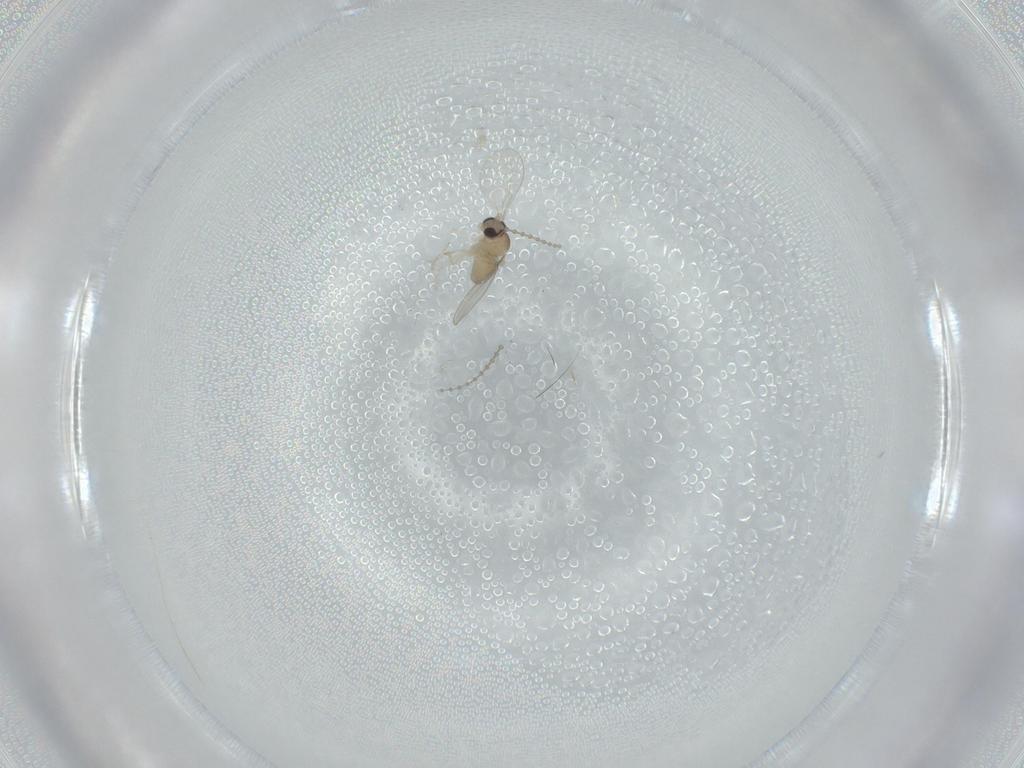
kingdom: Animalia
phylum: Arthropoda
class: Insecta
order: Diptera
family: Cecidomyiidae
